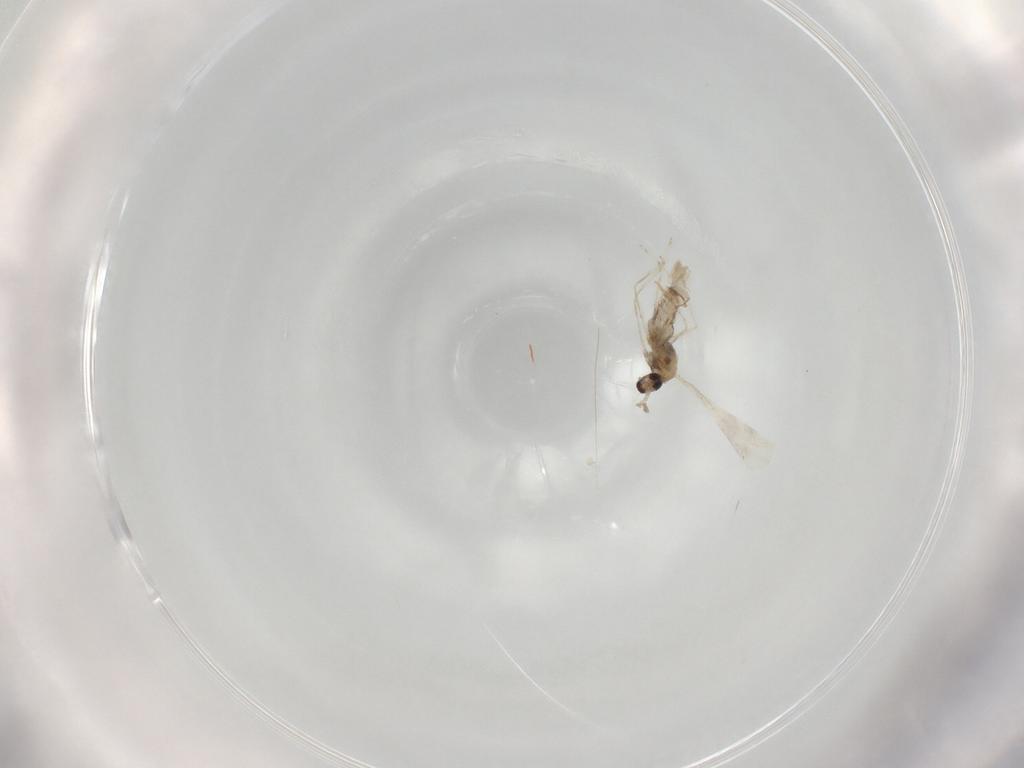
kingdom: Animalia
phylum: Arthropoda
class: Insecta
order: Diptera
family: Cecidomyiidae
